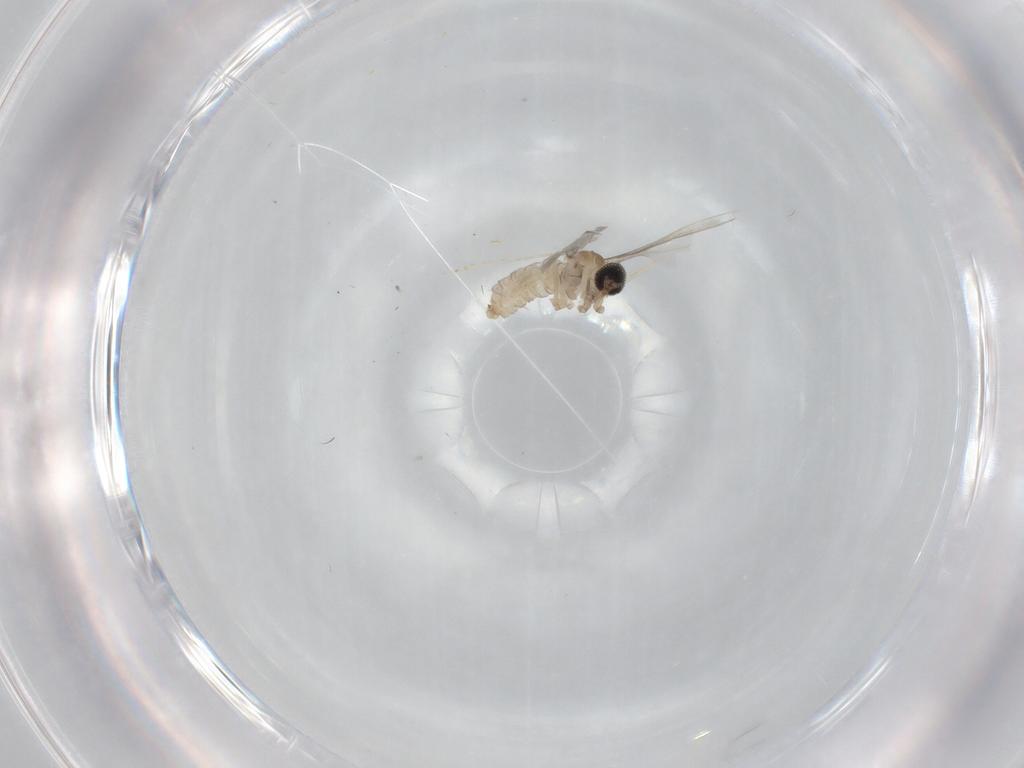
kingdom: Animalia
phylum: Arthropoda
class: Insecta
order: Diptera
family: Cecidomyiidae
